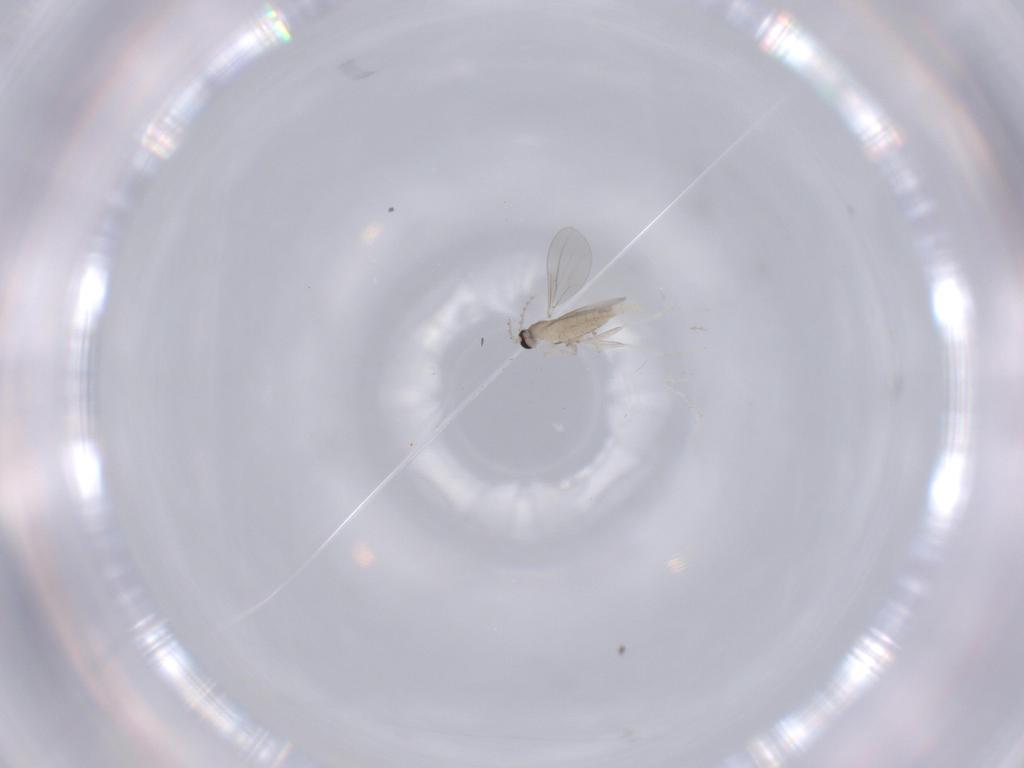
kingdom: Animalia
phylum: Arthropoda
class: Insecta
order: Diptera
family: Cecidomyiidae
